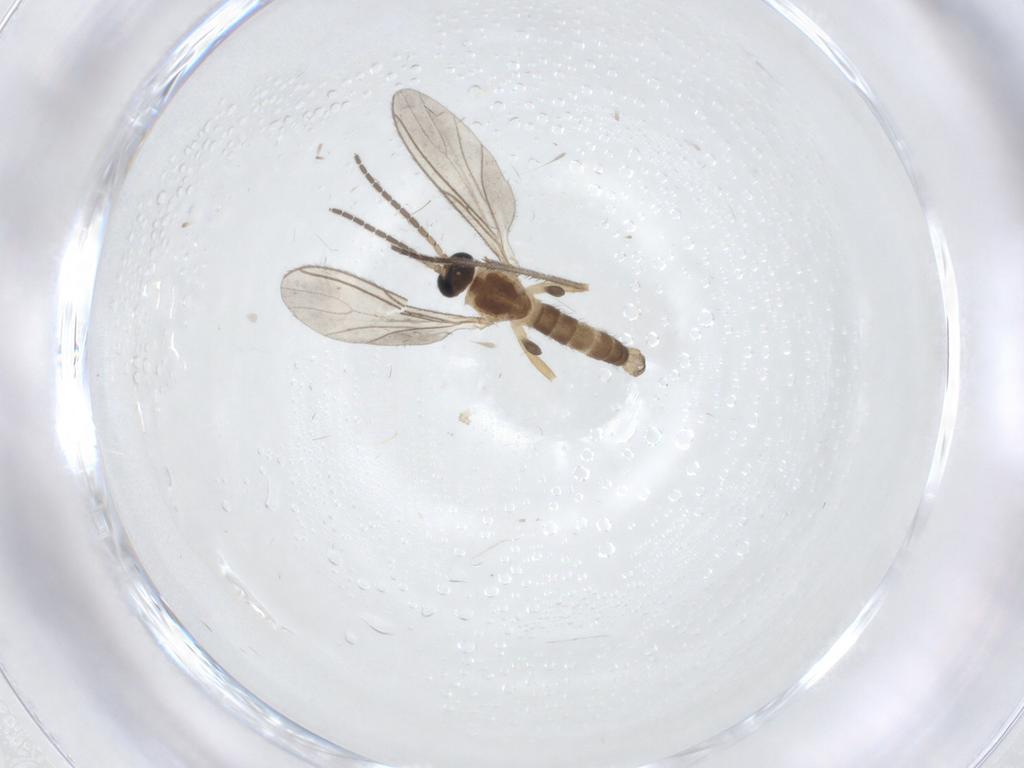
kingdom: Animalia
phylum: Arthropoda
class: Insecta
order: Diptera
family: Sciaridae
